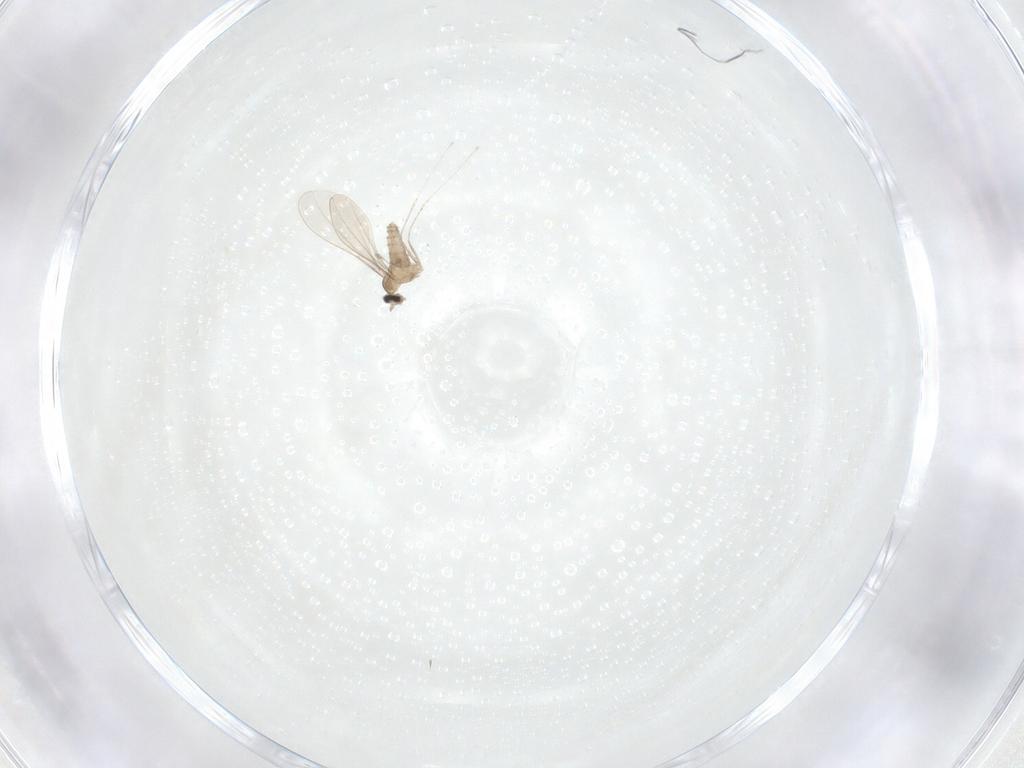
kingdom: Animalia
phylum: Arthropoda
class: Insecta
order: Diptera
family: Cecidomyiidae
